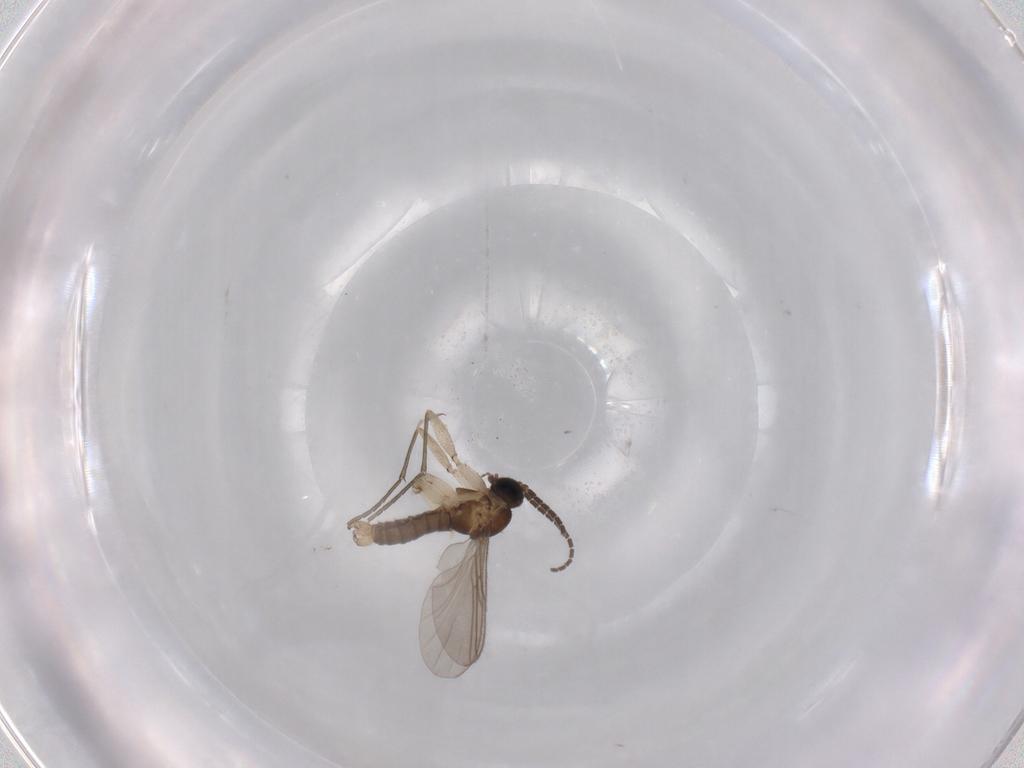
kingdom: Animalia
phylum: Arthropoda
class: Insecta
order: Diptera
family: Sciaridae
